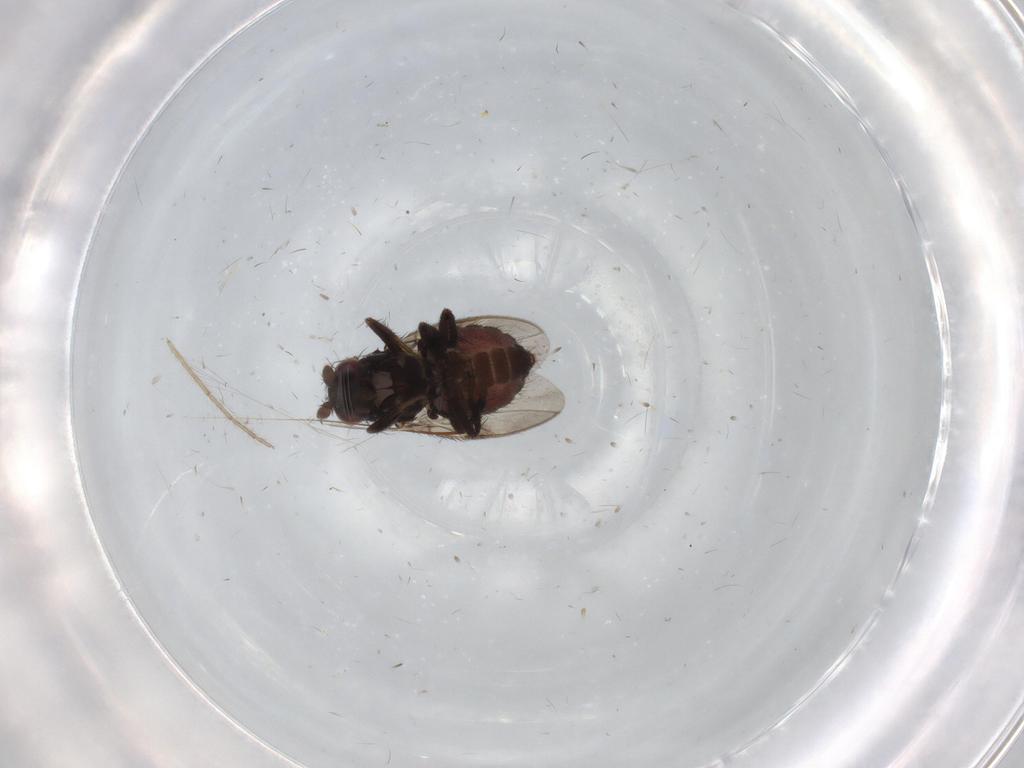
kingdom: Animalia
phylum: Arthropoda
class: Insecta
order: Diptera
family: Sphaeroceridae
